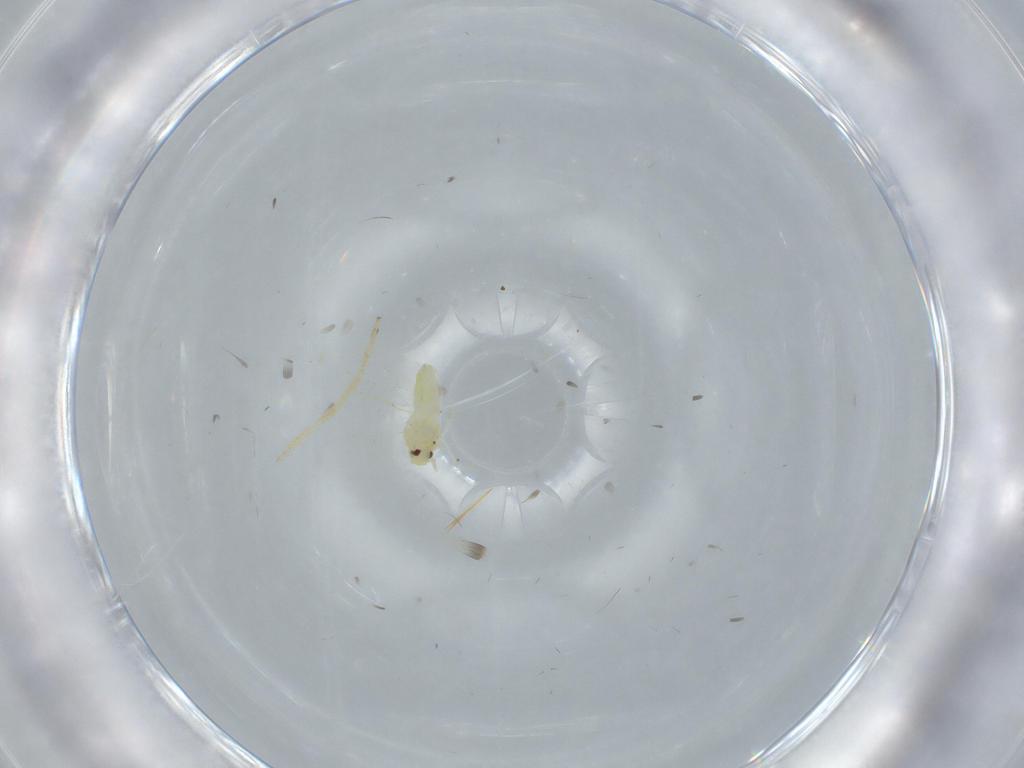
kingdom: Animalia
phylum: Arthropoda
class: Insecta
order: Hemiptera
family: Aleyrodidae
